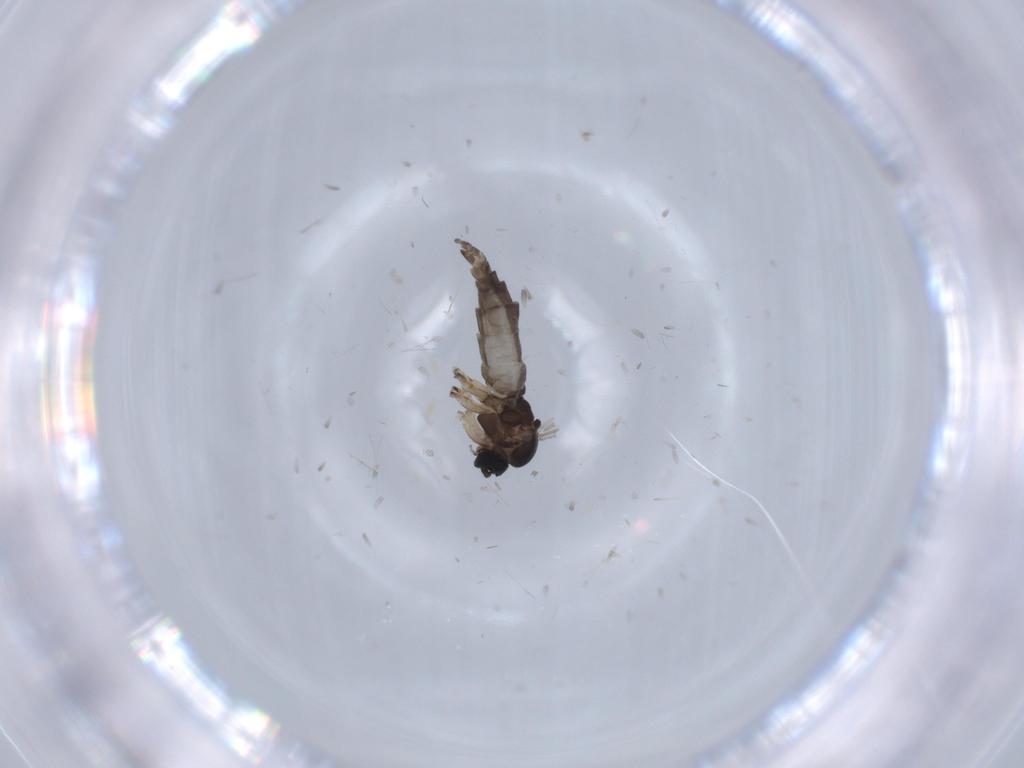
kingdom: Animalia
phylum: Arthropoda
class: Insecta
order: Diptera
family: Sciaridae
